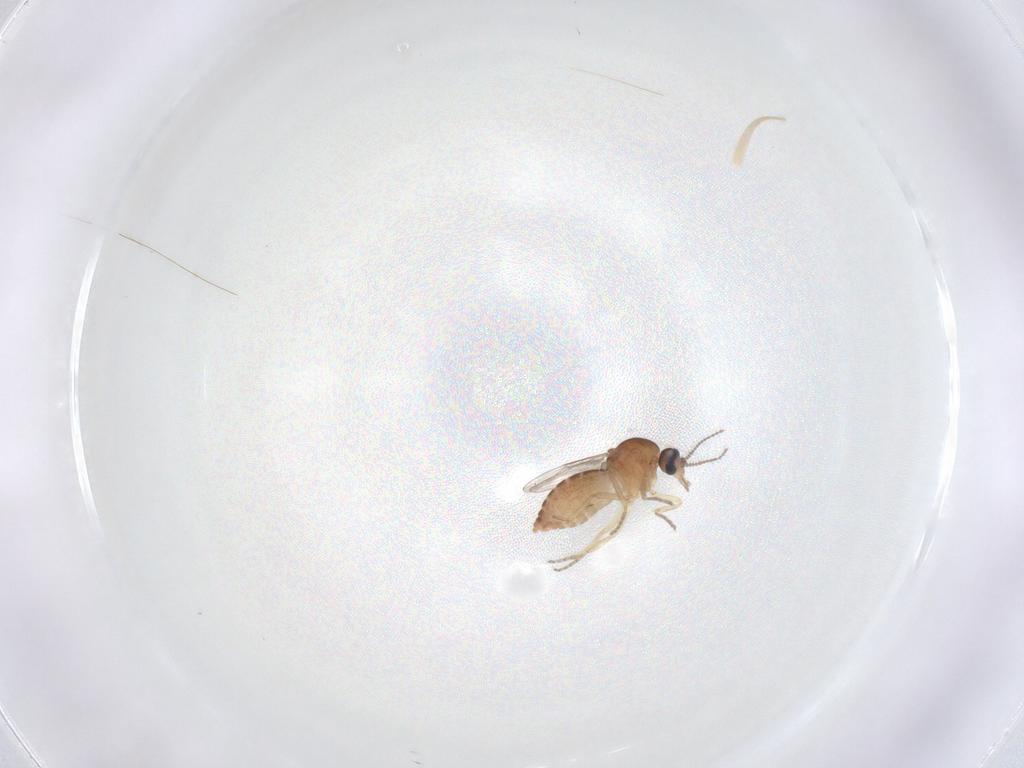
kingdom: Animalia
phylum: Arthropoda
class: Insecta
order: Diptera
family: Ceratopogonidae
